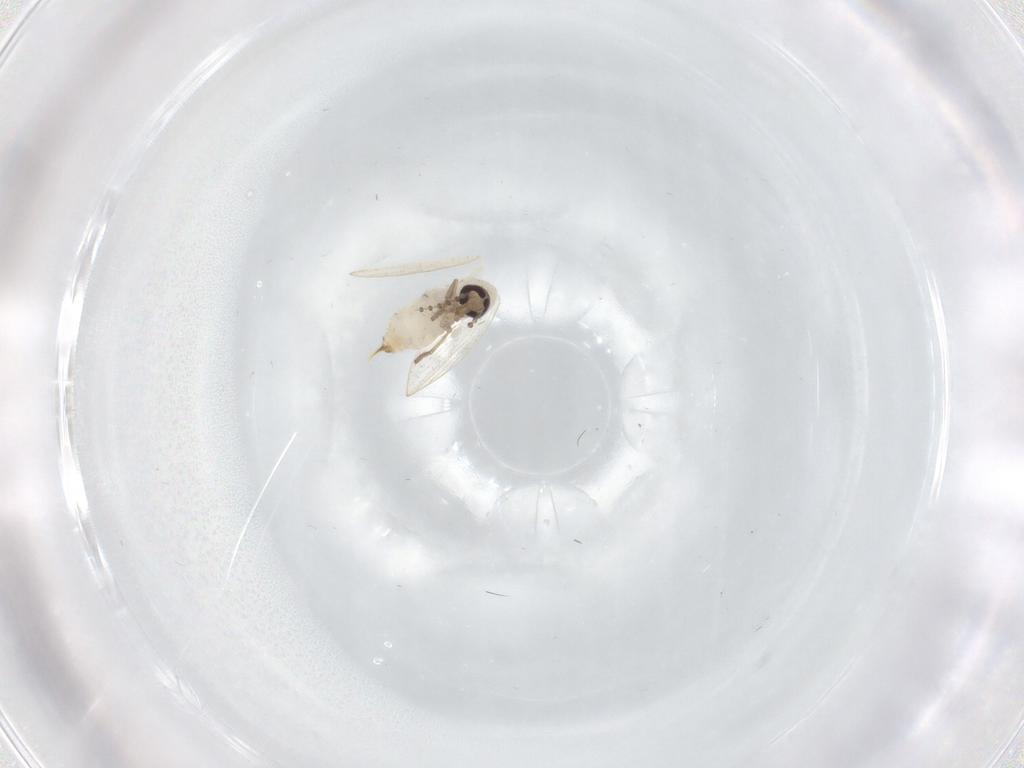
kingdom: Animalia
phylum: Arthropoda
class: Insecta
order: Diptera
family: Psychodidae
